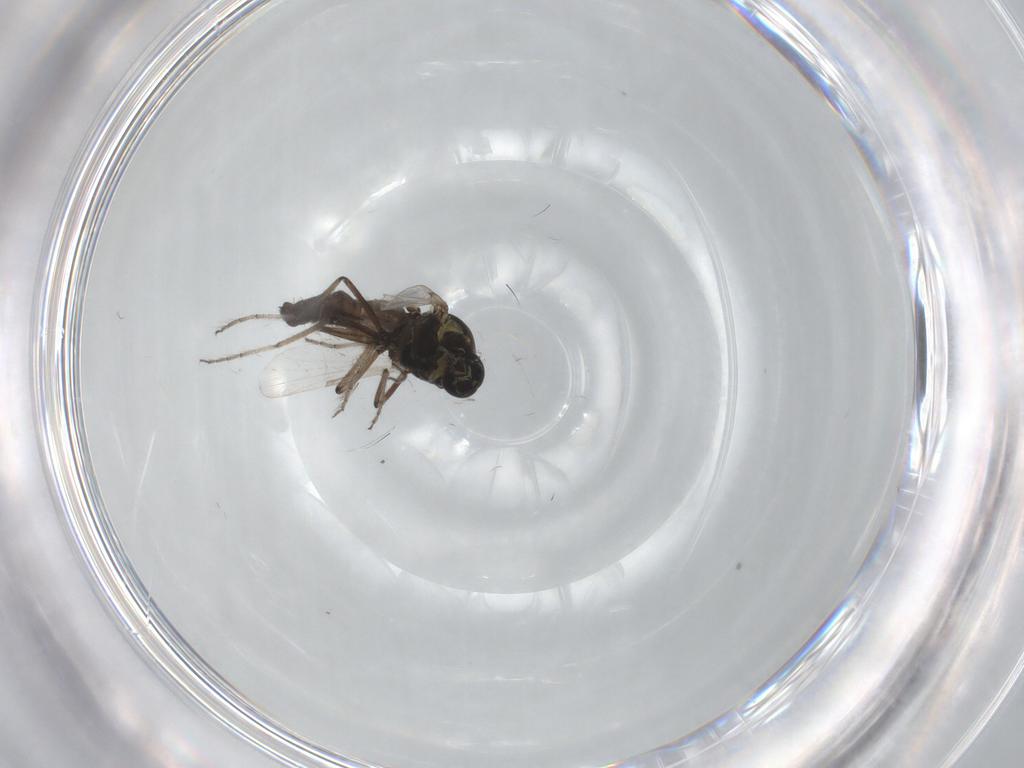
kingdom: Animalia
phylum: Arthropoda
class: Insecta
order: Diptera
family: Ceratopogonidae
